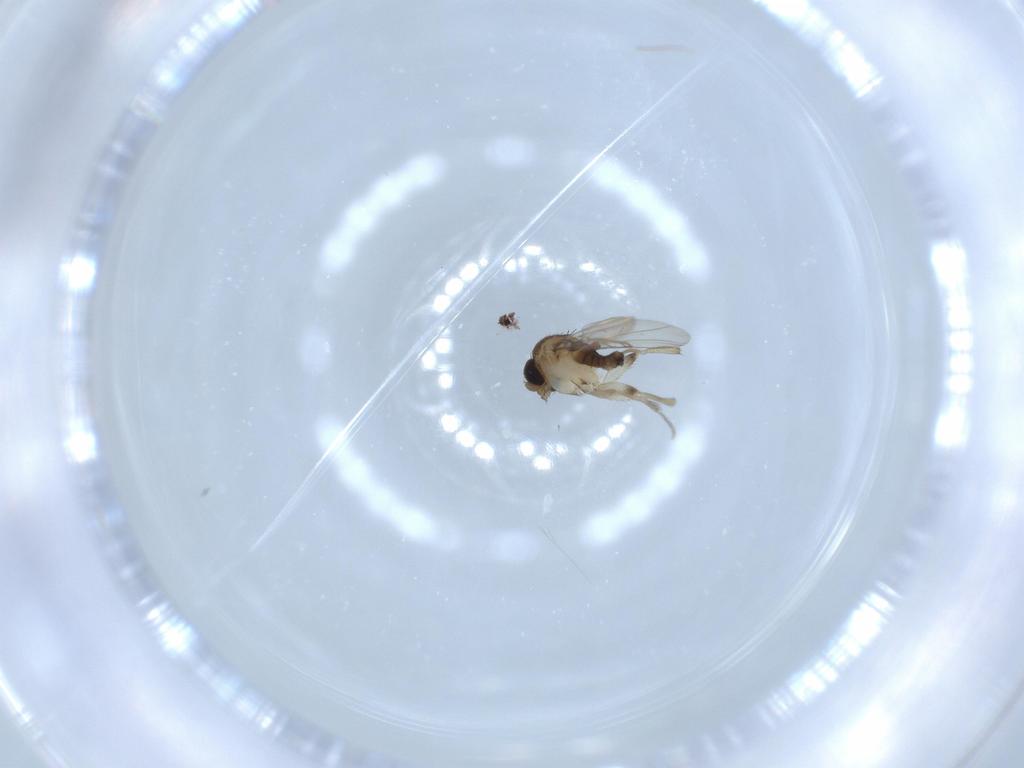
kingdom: Animalia
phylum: Arthropoda
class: Insecta
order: Diptera
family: Phoridae
